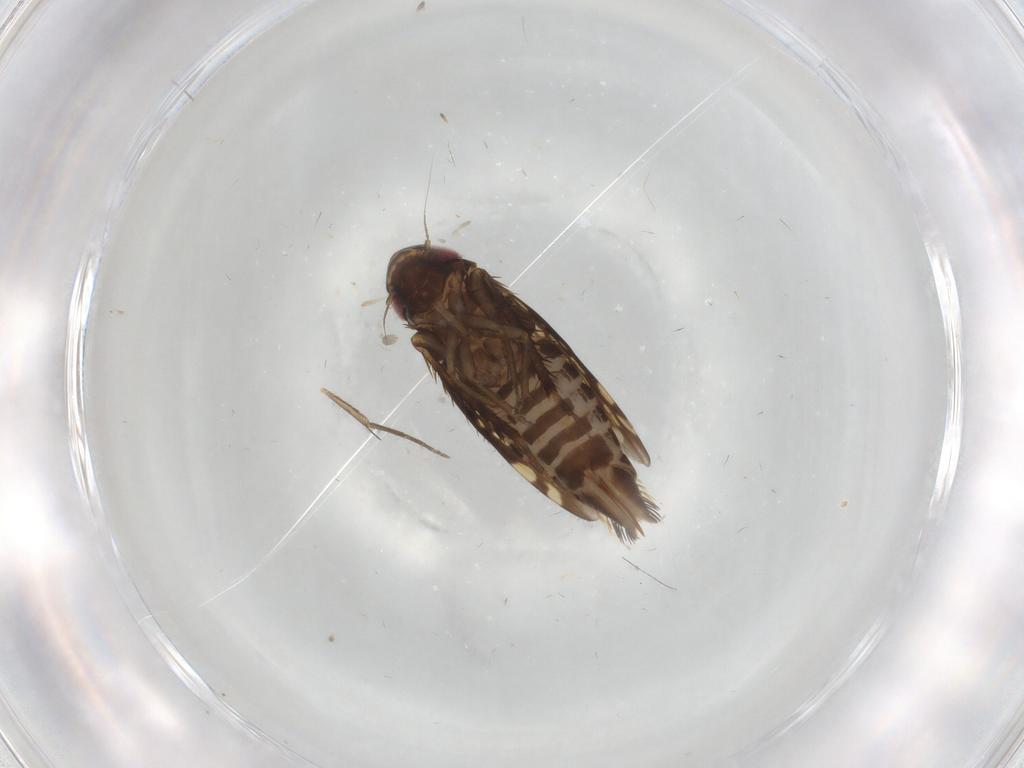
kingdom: Animalia
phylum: Arthropoda
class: Insecta
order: Hemiptera
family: Cicadellidae
